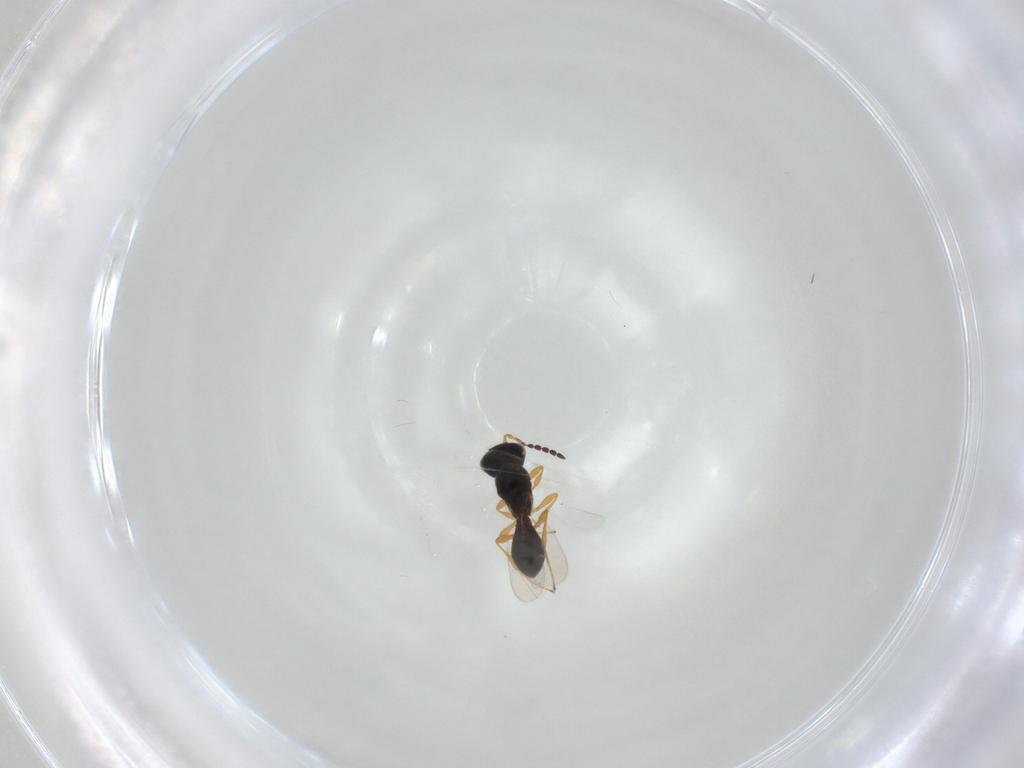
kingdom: Animalia
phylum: Arthropoda
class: Insecta
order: Hymenoptera
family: Platygastridae
